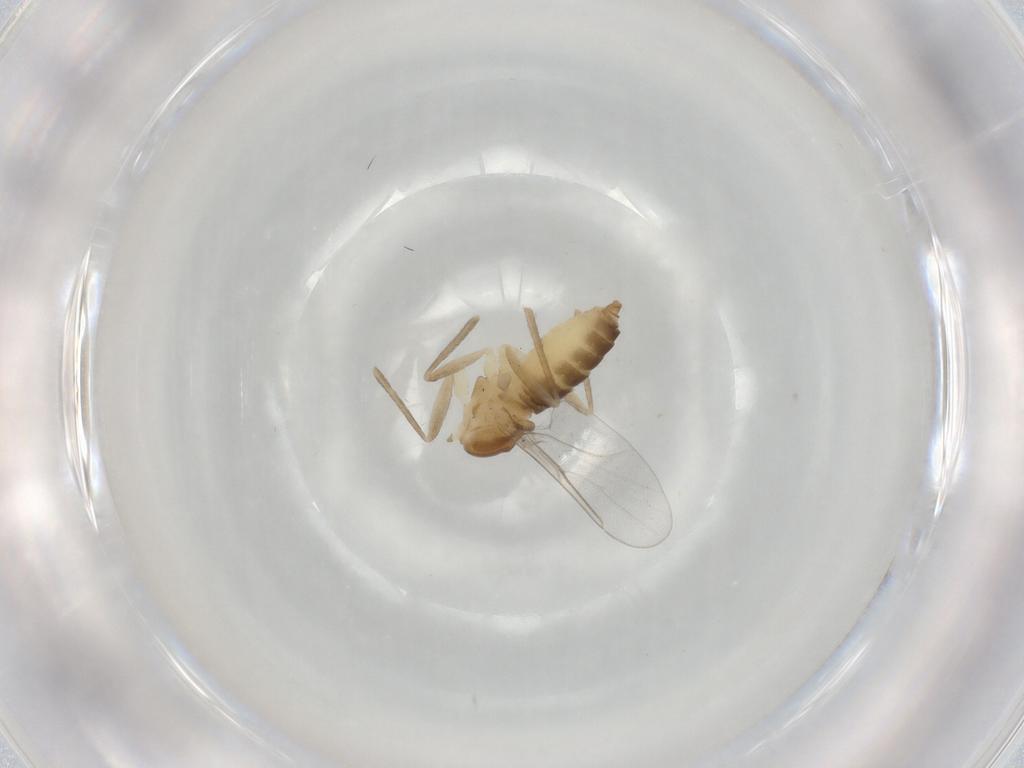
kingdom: Animalia
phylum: Arthropoda
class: Insecta
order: Diptera
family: Cecidomyiidae
